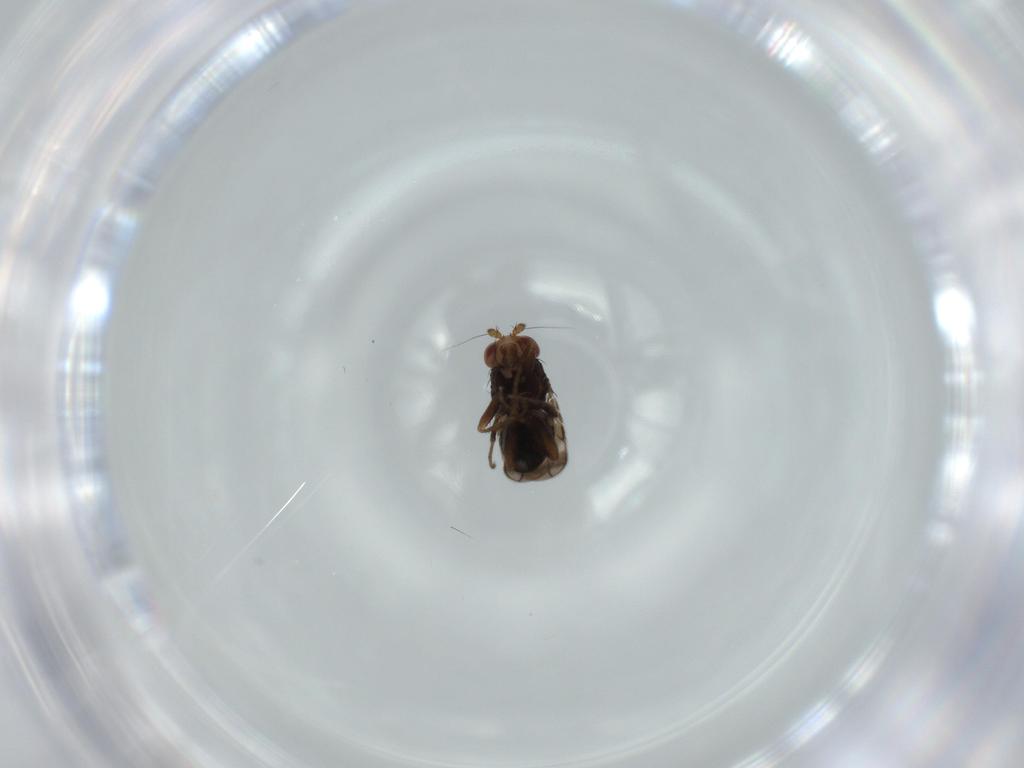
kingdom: Animalia
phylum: Arthropoda
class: Insecta
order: Diptera
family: Sphaeroceridae
